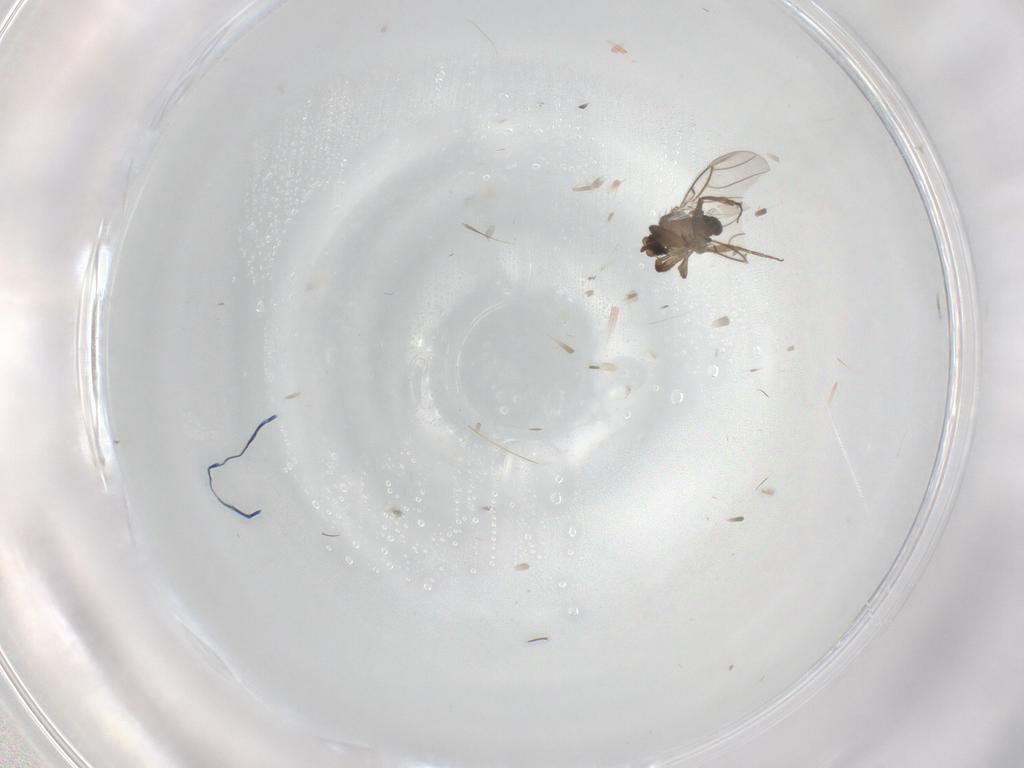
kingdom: Animalia
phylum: Arthropoda
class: Insecta
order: Diptera
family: Phoridae
